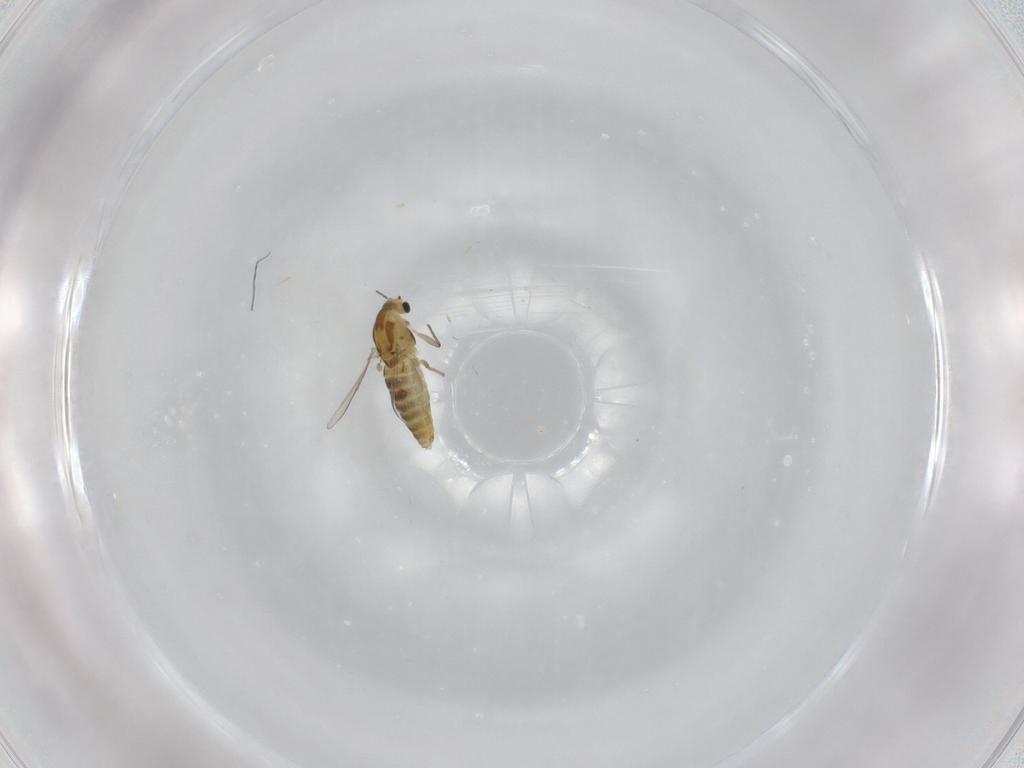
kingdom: Animalia
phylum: Arthropoda
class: Insecta
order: Diptera
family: Chironomidae
